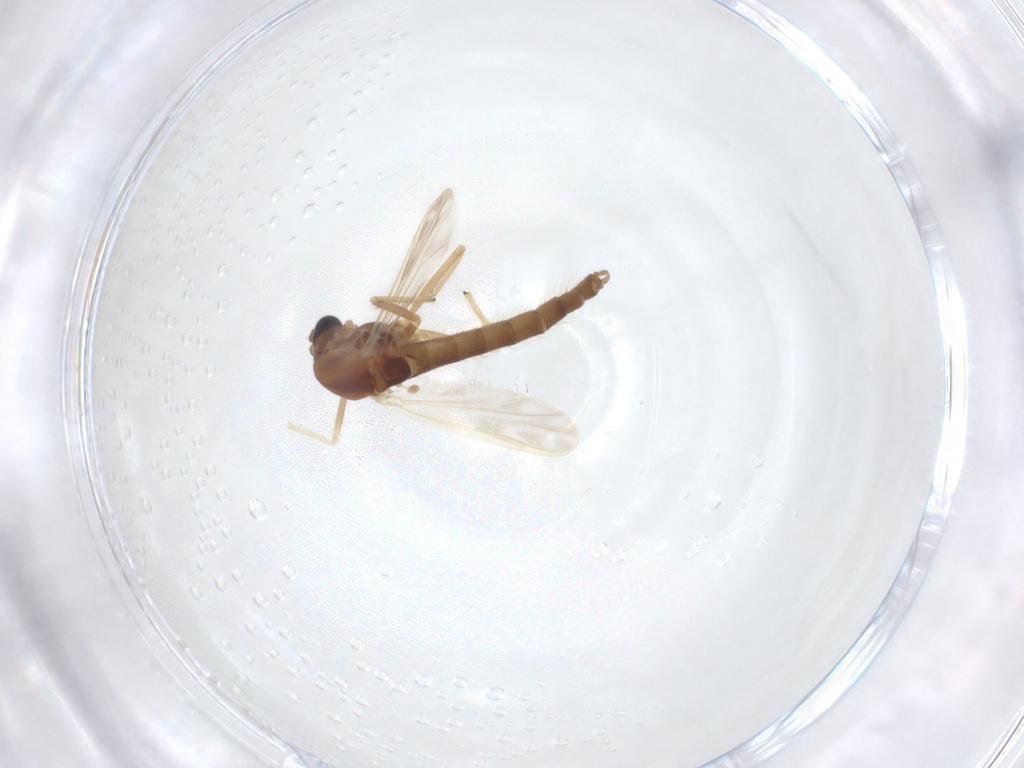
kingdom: Animalia
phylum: Arthropoda
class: Insecta
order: Diptera
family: Chironomidae
